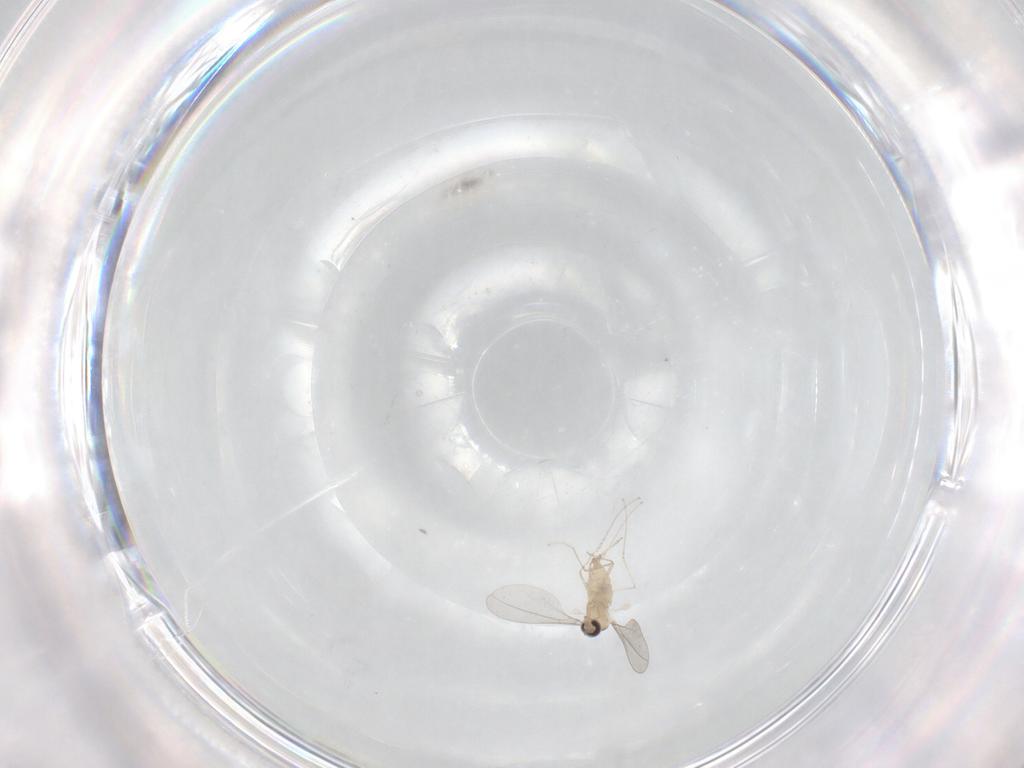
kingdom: Animalia
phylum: Arthropoda
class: Insecta
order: Diptera
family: Cecidomyiidae
